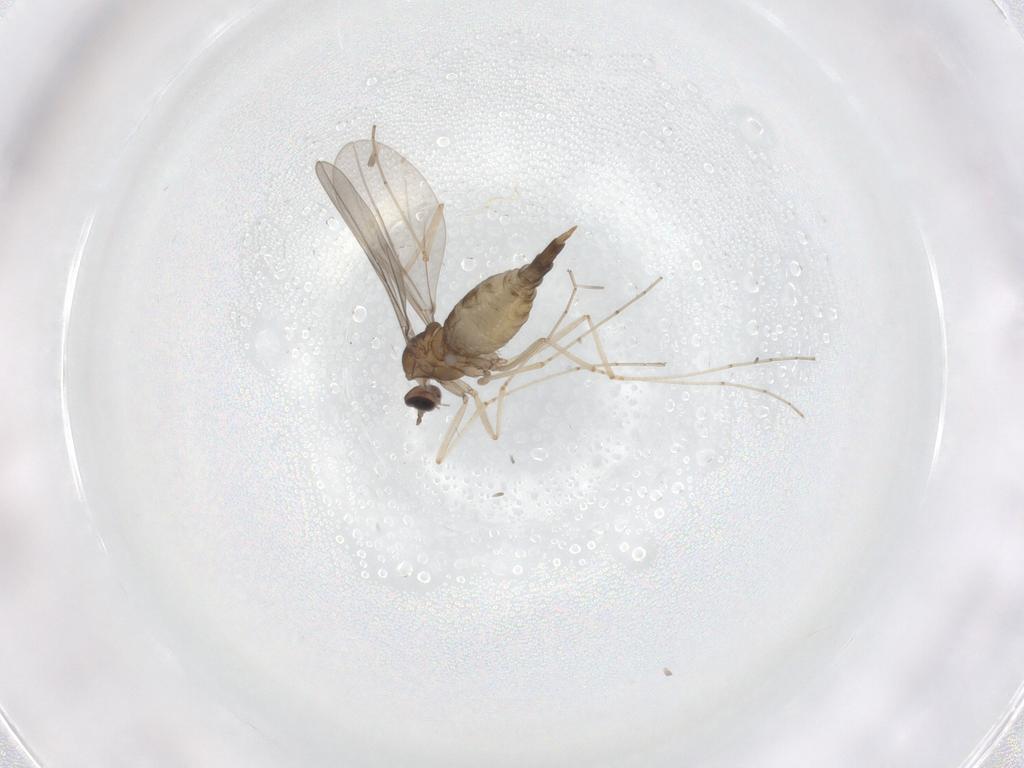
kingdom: Animalia
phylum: Arthropoda
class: Insecta
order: Diptera
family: Cecidomyiidae
